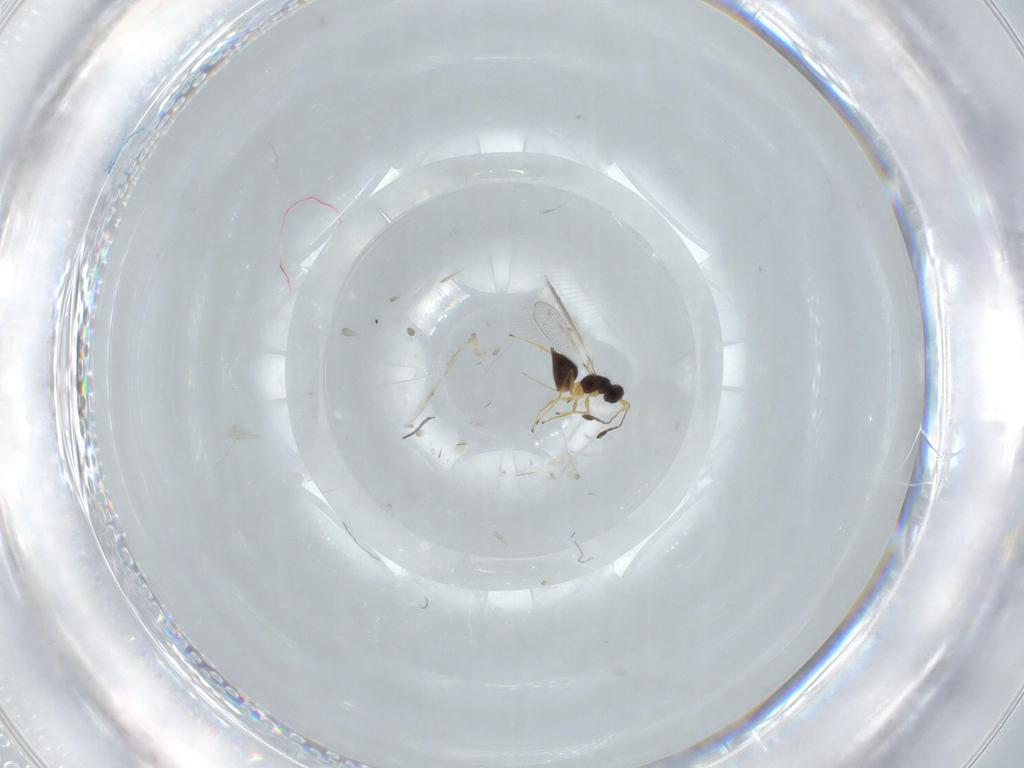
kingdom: Animalia
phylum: Arthropoda
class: Insecta
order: Hymenoptera
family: Formicidae
